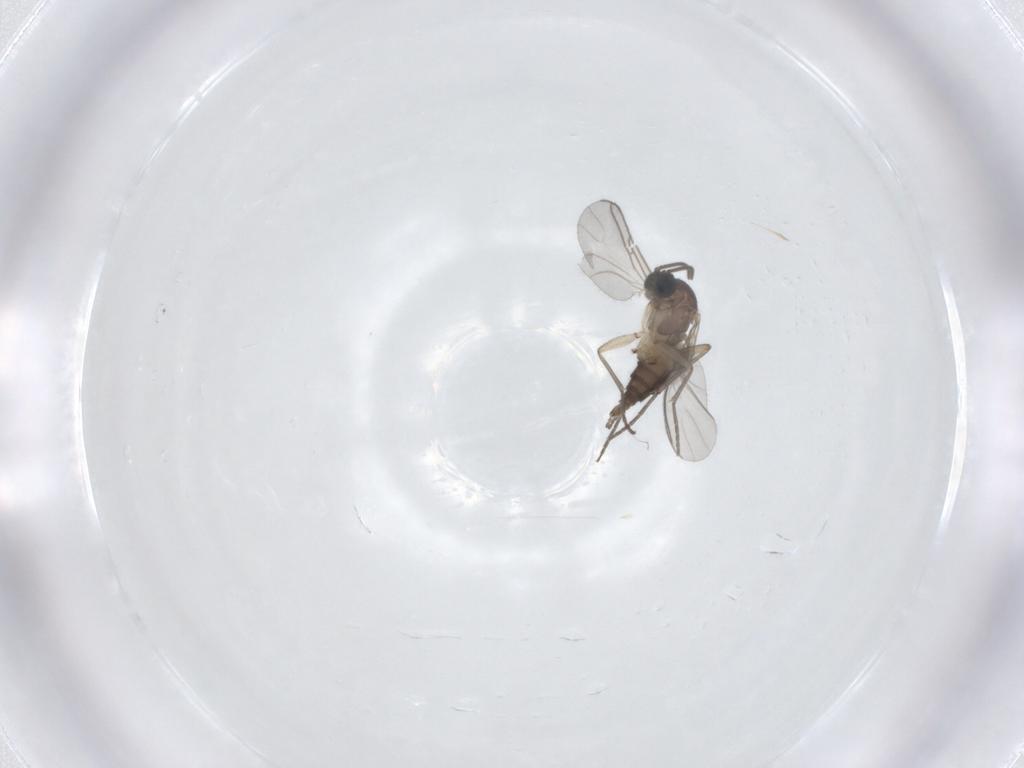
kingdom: Animalia
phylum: Arthropoda
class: Insecta
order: Diptera
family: Sciaridae
